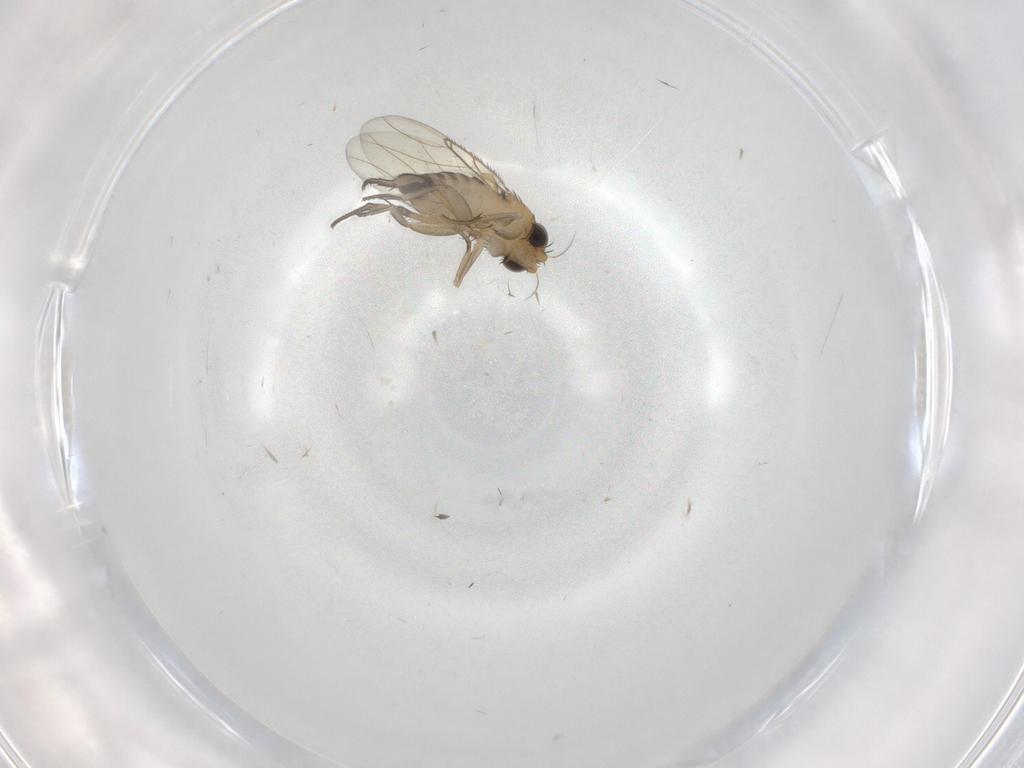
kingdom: Animalia
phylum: Arthropoda
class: Insecta
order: Diptera
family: Phoridae
